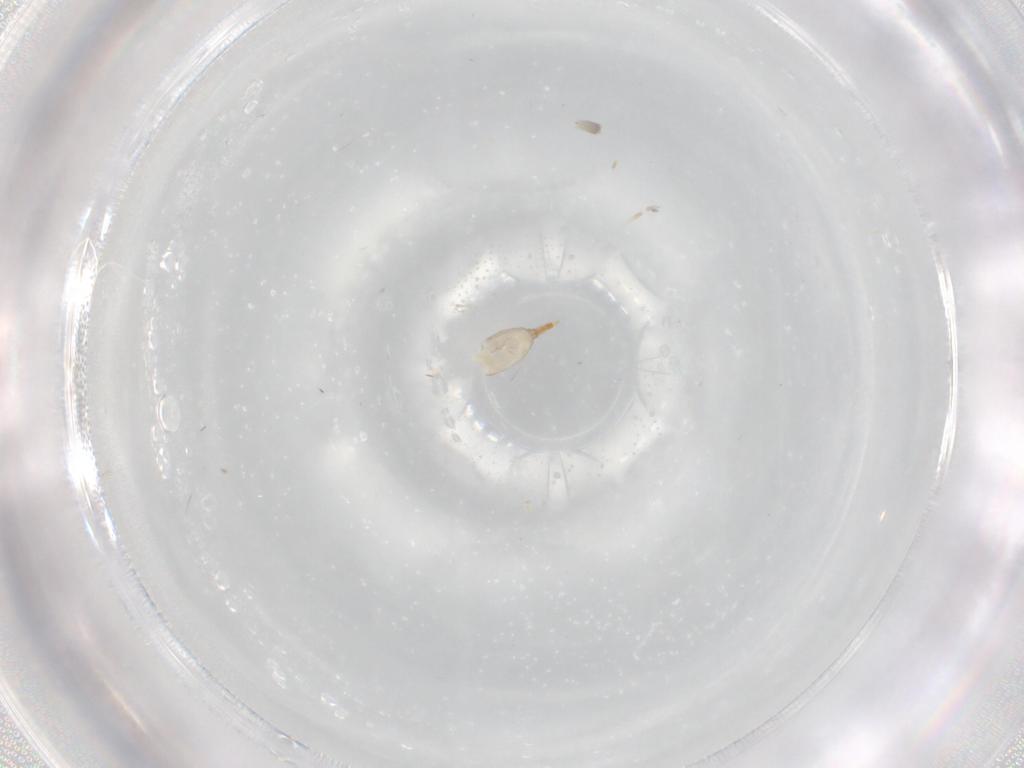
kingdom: Animalia
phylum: Arthropoda
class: Insecta
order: Diptera
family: Cecidomyiidae
